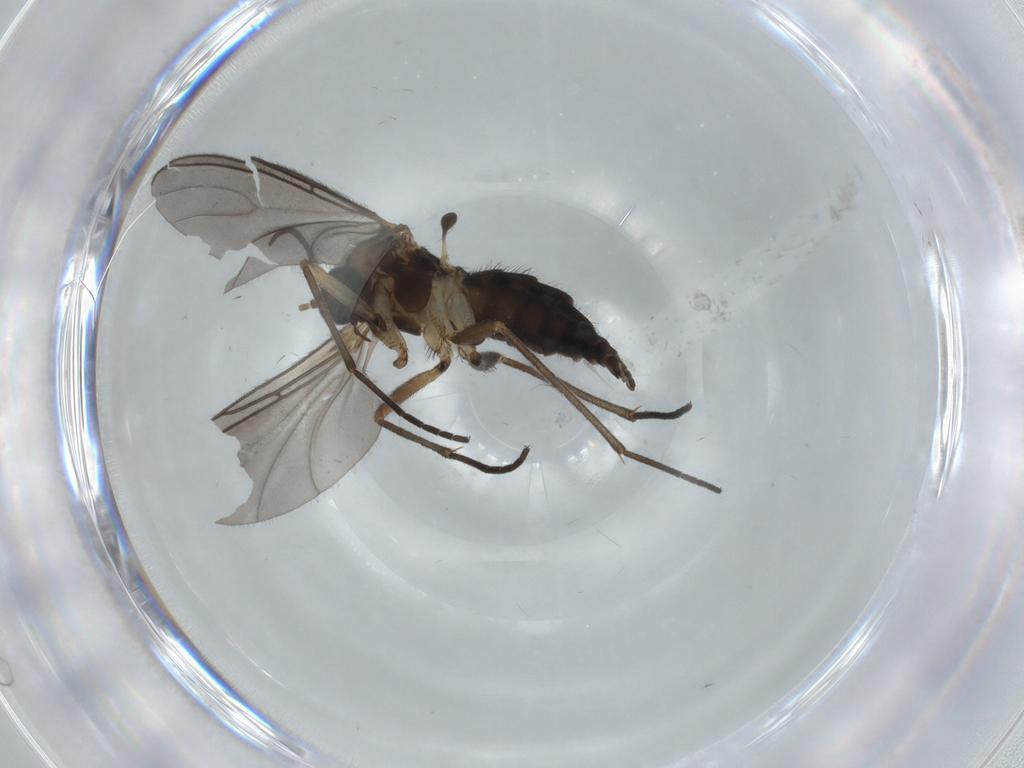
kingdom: Animalia
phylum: Arthropoda
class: Insecta
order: Diptera
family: Sciaridae
